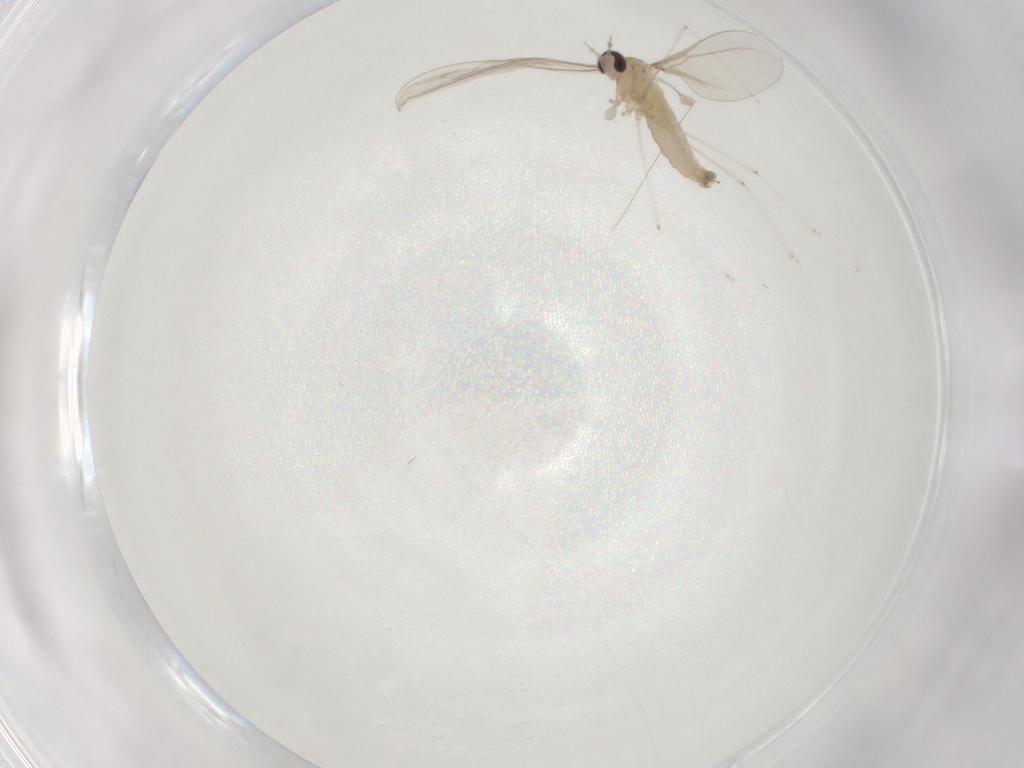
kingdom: Animalia
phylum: Arthropoda
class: Insecta
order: Diptera
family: Cecidomyiidae
